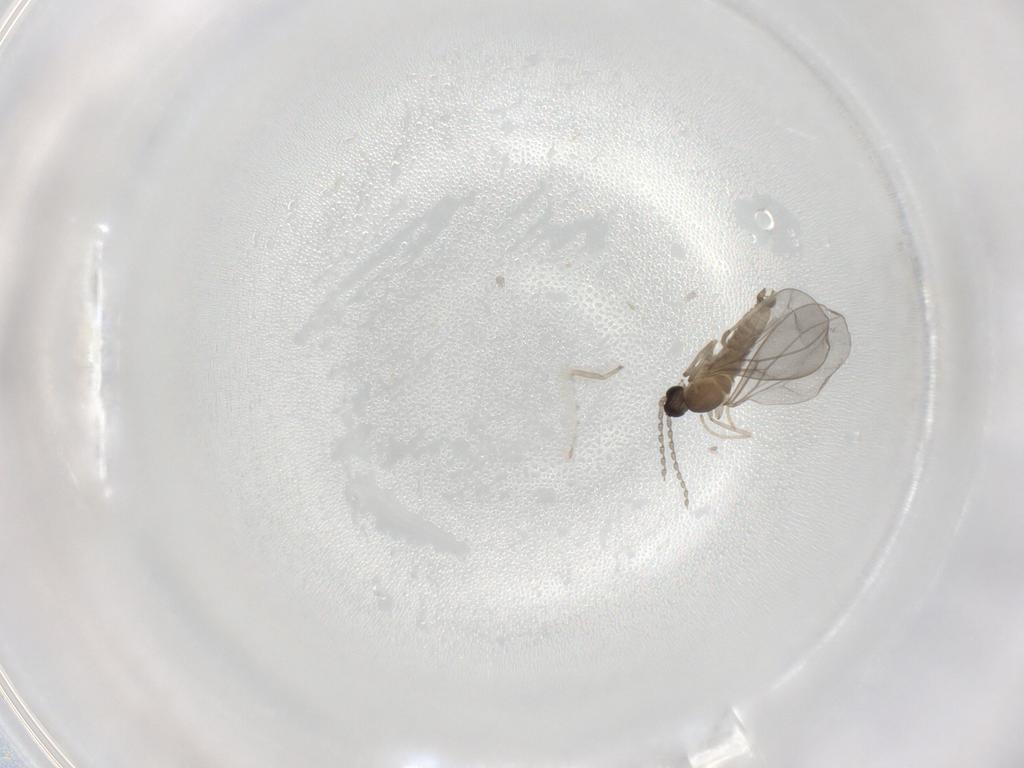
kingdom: Animalia
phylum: Arthropoda
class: Insecta
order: Diptera
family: Cecidomyiidae
